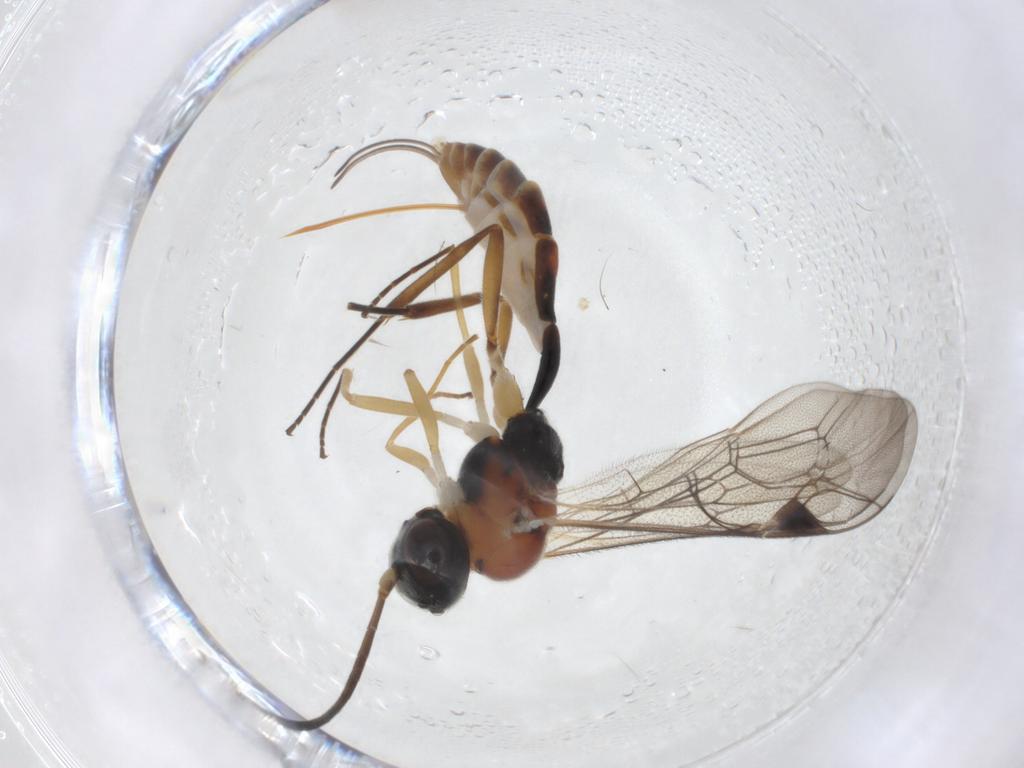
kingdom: Animalia
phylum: Arthropoda
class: Insecta
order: Hymenoptera
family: Ichneumonidae
